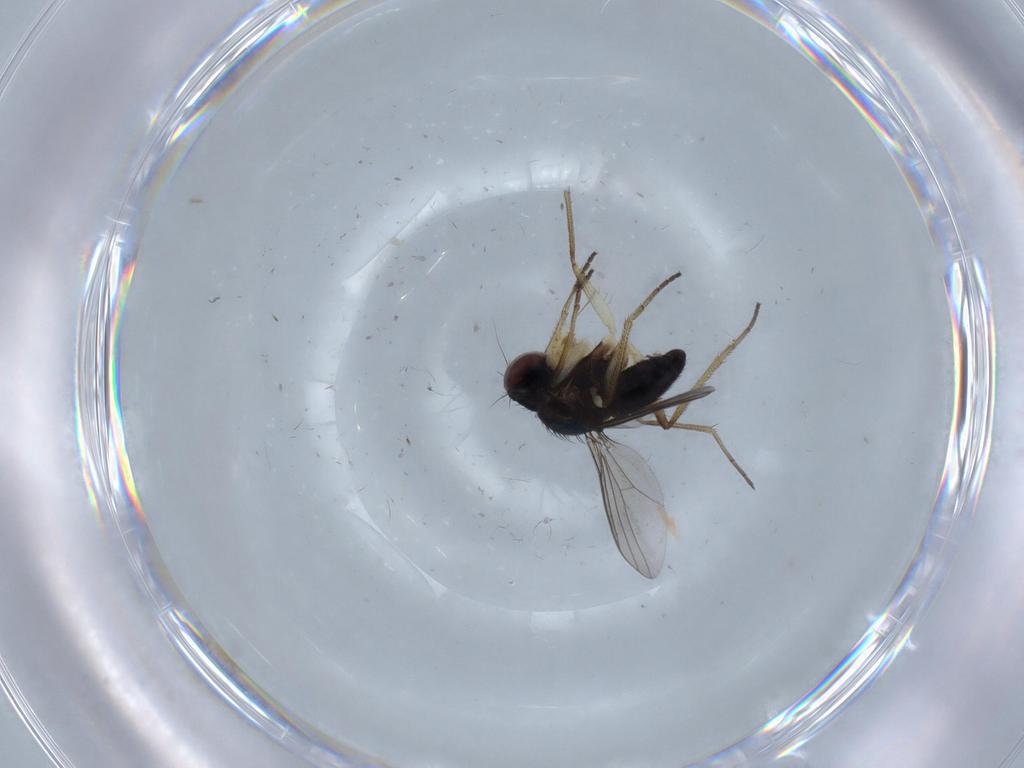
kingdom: Animalia
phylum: Arthropoda
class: Insecta
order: Diptera
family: Dolichopodidae
